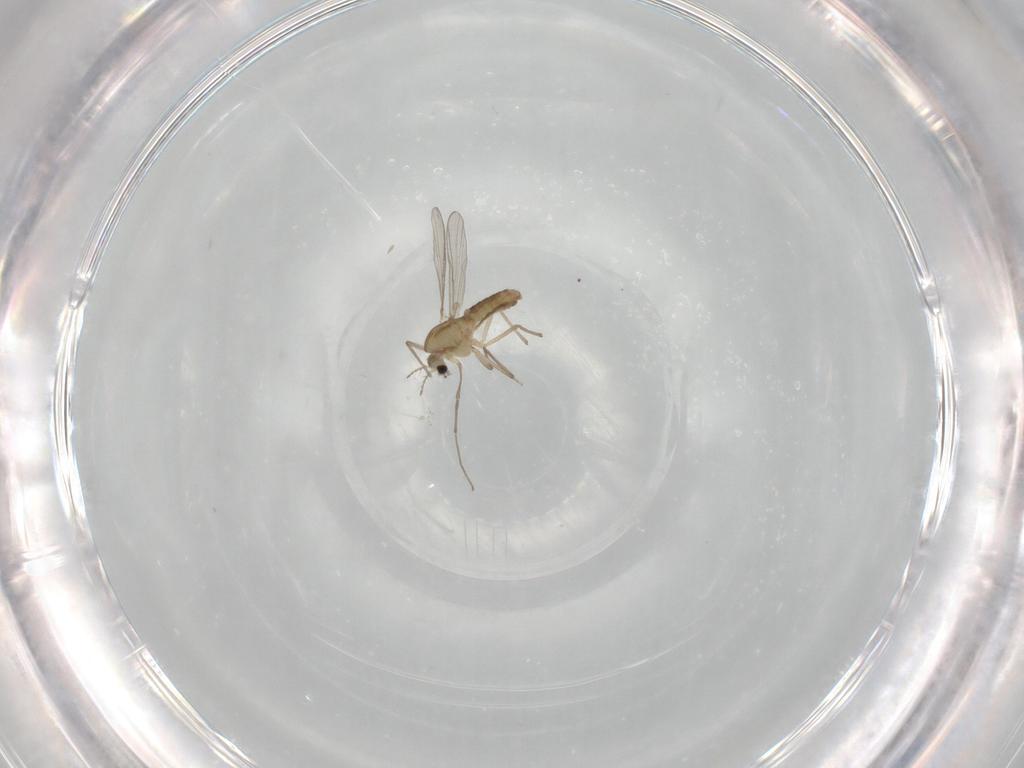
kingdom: Animalia
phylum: Arthropoda
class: Insecta
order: Diptera
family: Chironomidae
